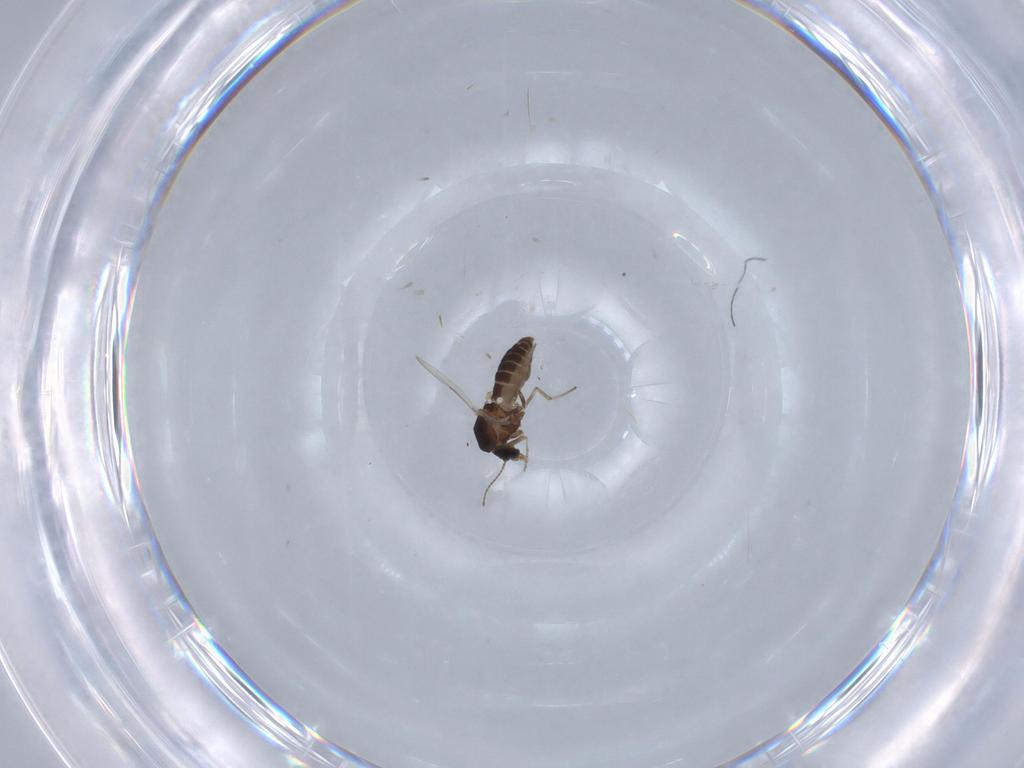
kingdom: Animalia
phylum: Arthropoda
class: Insecta
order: Diptera
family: Ceratopogonidae
